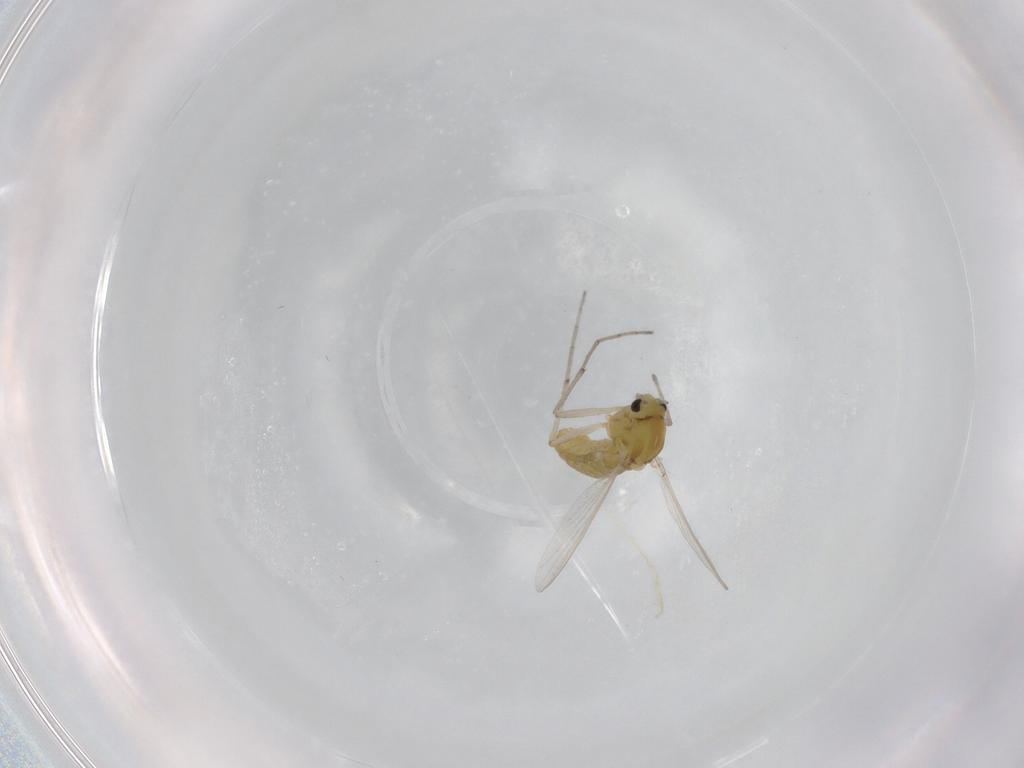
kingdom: Animalia
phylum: Arthropoda
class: Insecta
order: Diptera
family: Chironomidae
